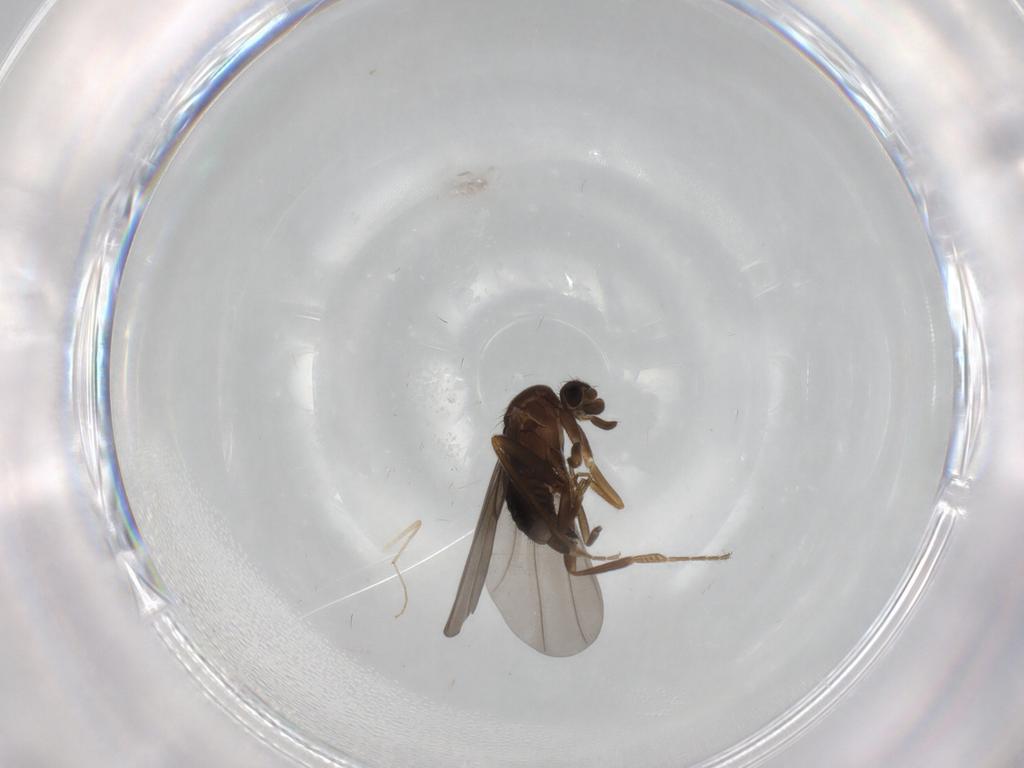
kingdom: Animalia
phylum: Arthropoda
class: Insecta
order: Diptera
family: Phoridae
